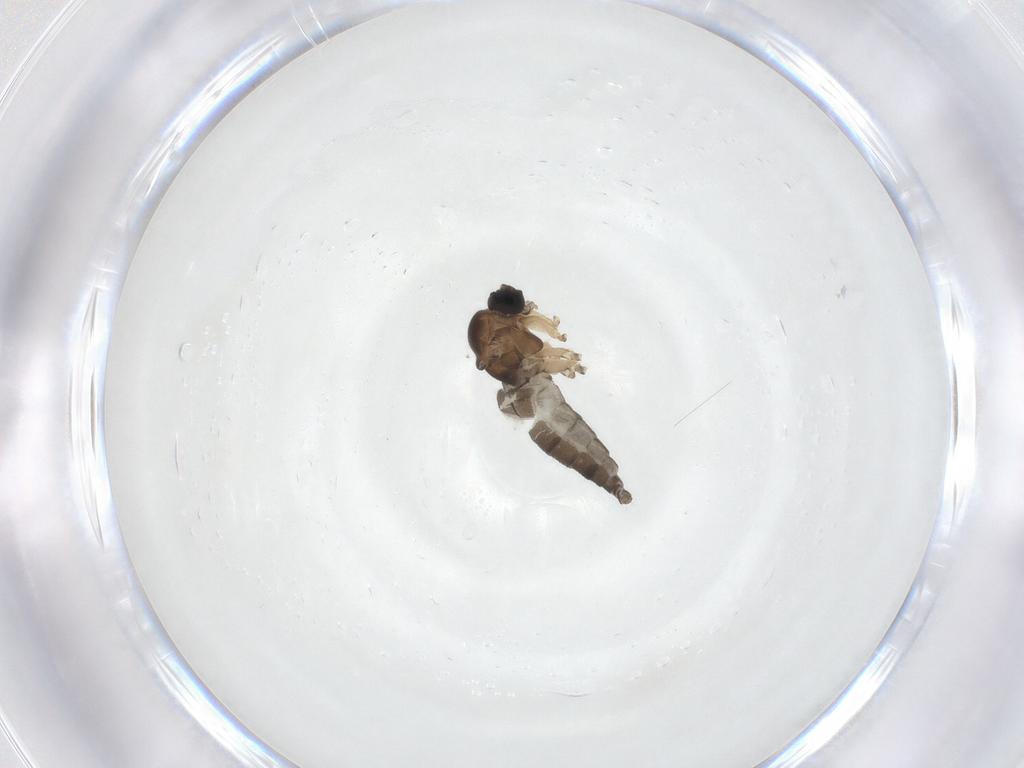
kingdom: Animalia
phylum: Arthropoda
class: Insecta
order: Diptera
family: Sciaridae
